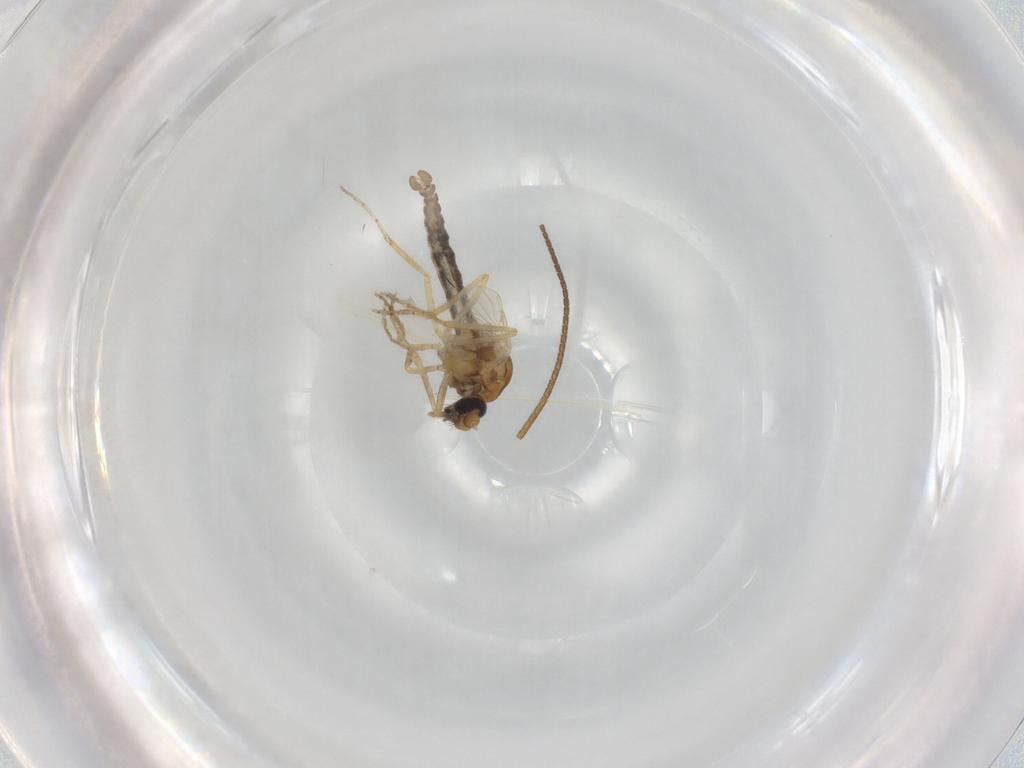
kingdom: Animalia
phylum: Arthropoda
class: Insecta
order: Diptera
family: Ceratopogonidae
